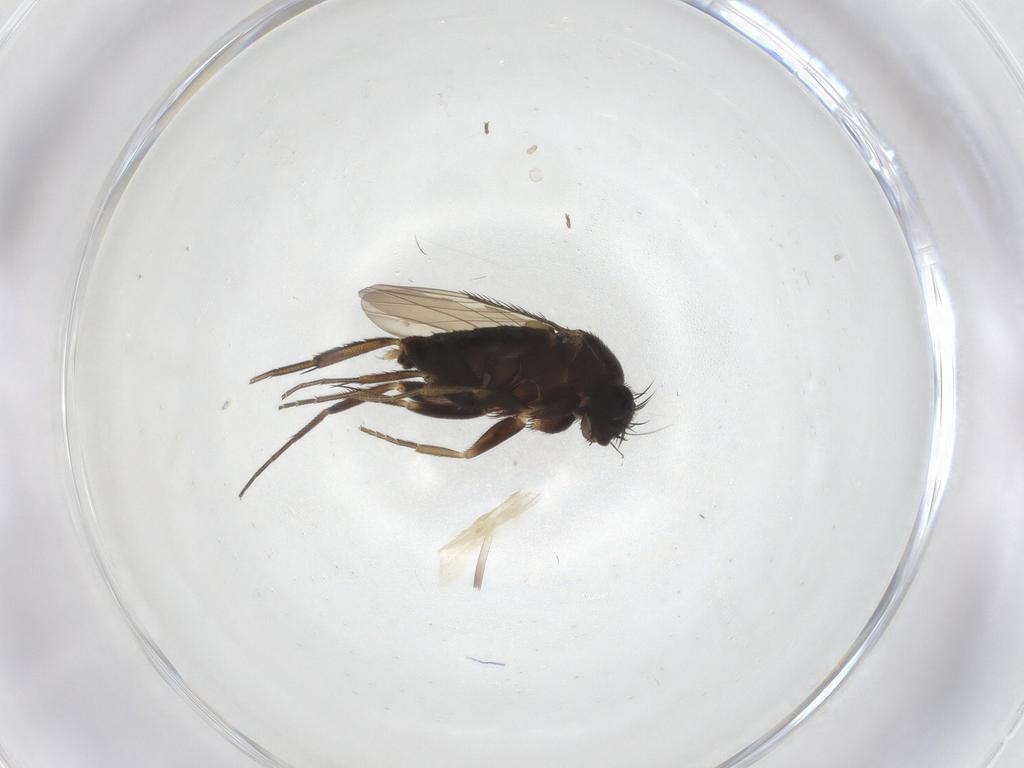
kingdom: Animalia
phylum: Arthropoda
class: Insecta
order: Diptera
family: Phoridae
